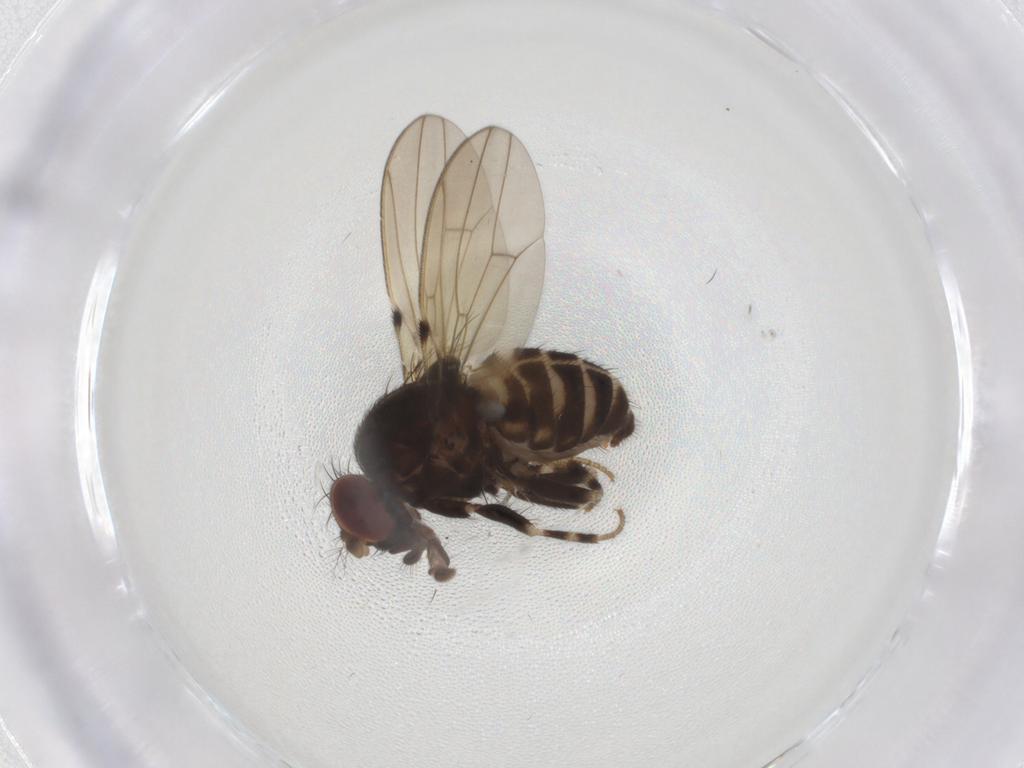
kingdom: Animalia
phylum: Arthropoda
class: Insecta
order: Diptera
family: Drosophilidae
